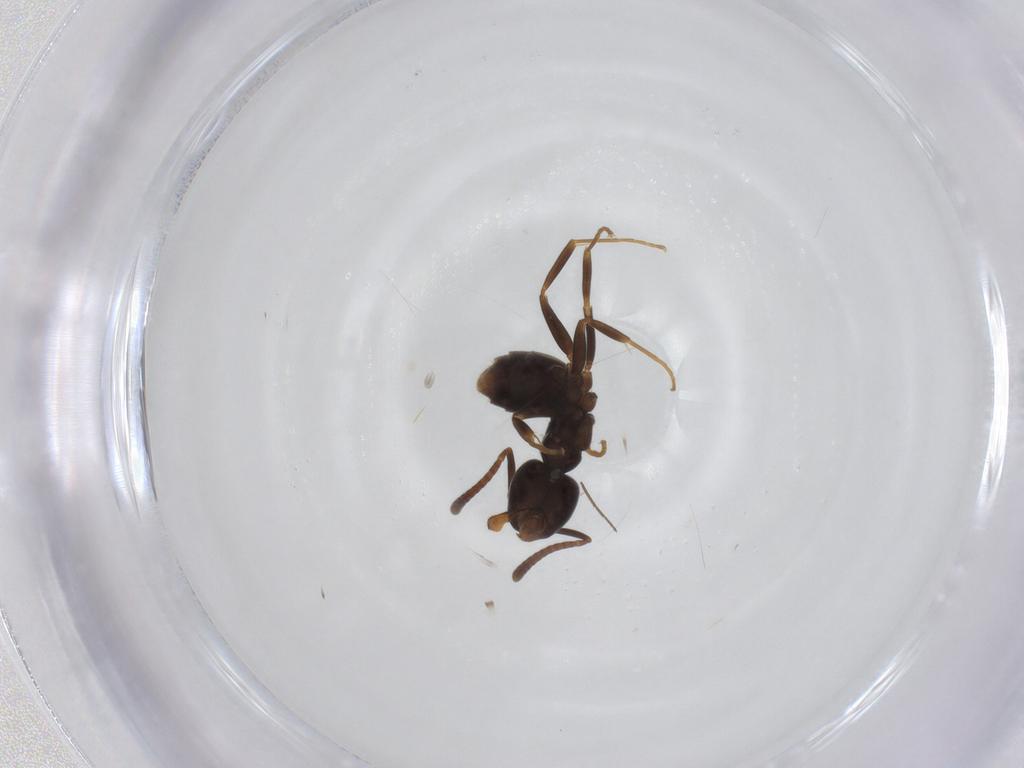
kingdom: Animalia
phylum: Arthropoda
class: Insecta
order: Hymenoptera
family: Formicidae
